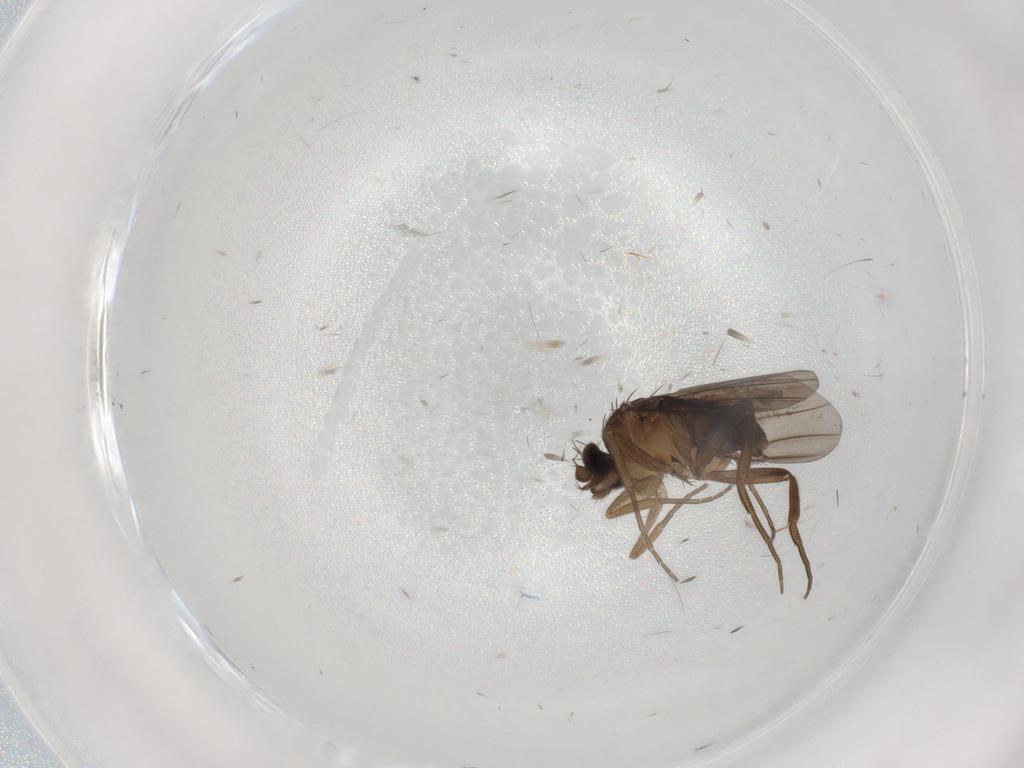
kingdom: Animalia
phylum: Arthropoda
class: Insecta
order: Diptera
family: Phoridae
